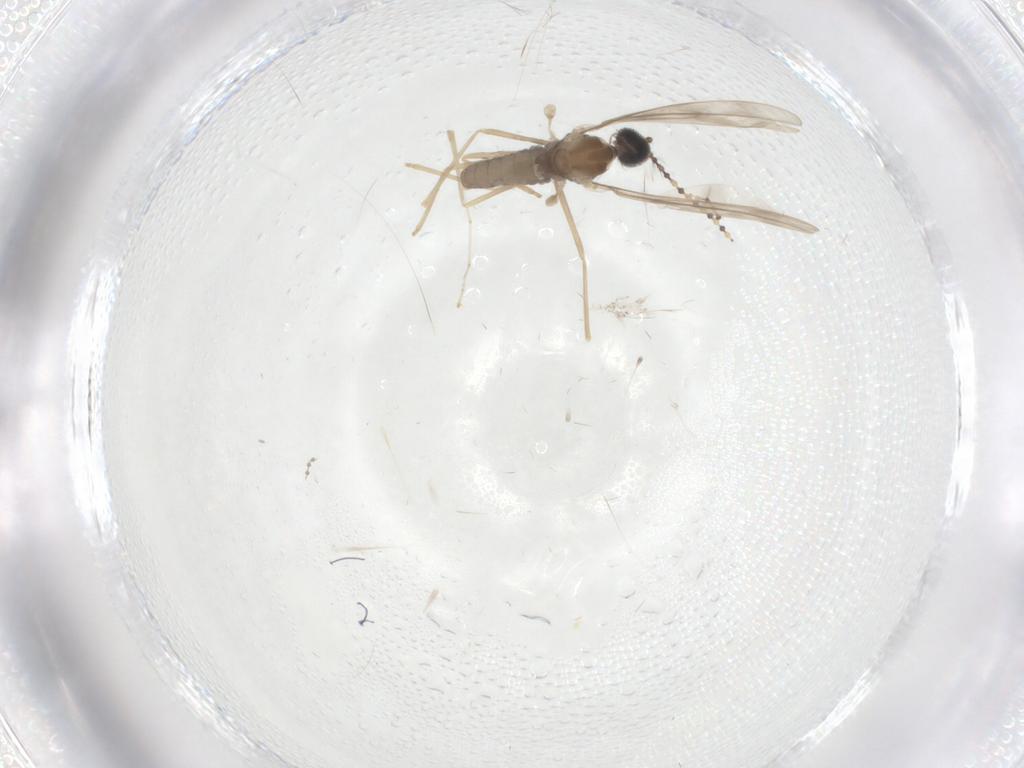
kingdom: Animalia
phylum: Arthropoda
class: Insecta
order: Diptera
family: Cecidomyiidae
